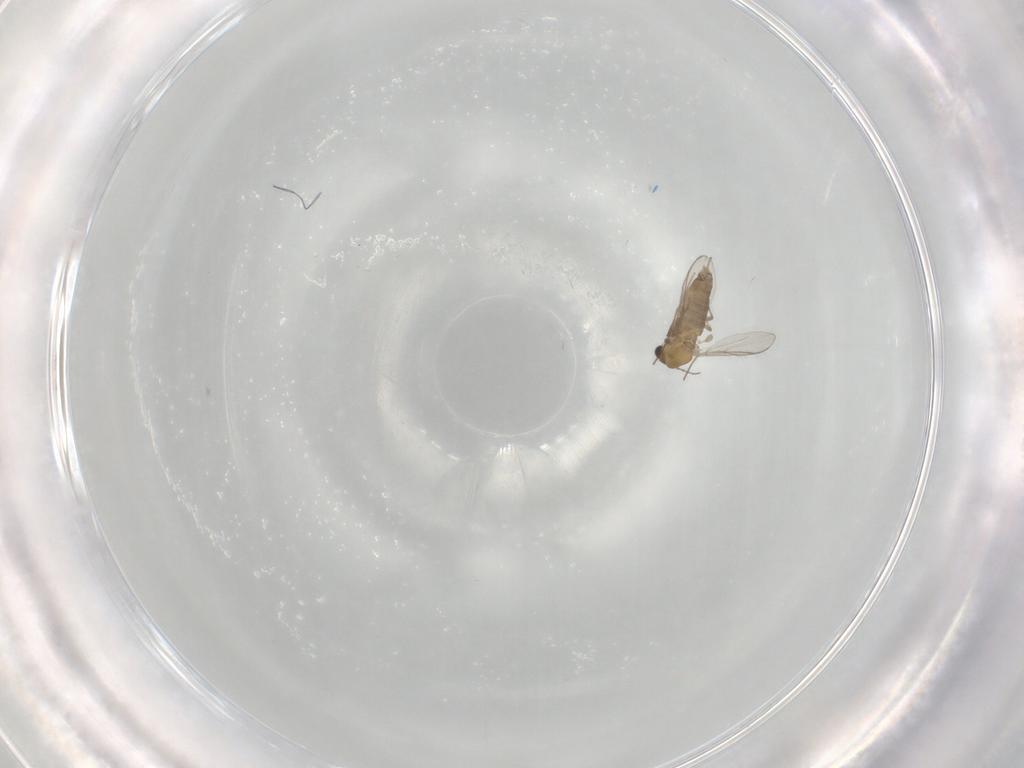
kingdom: Animalia
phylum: Arthropoda
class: Insecta
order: Diptera
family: Chironomidae
